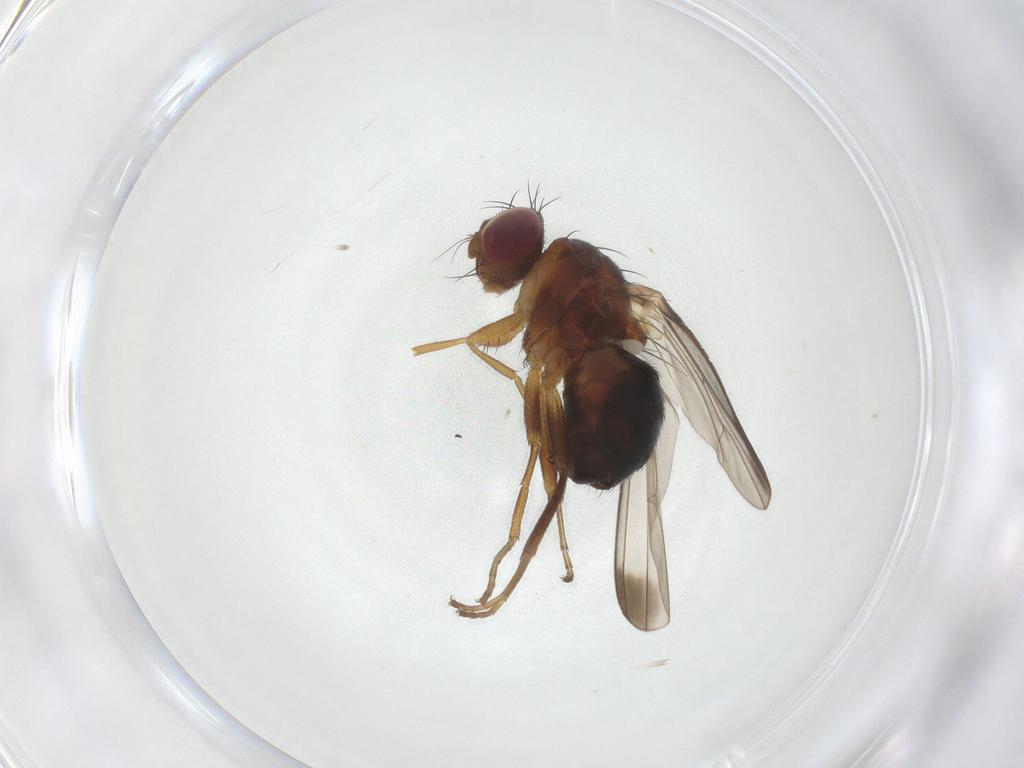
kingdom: Animalia
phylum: Arthropoda
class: Insecta
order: Diptera
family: Piophilidae
